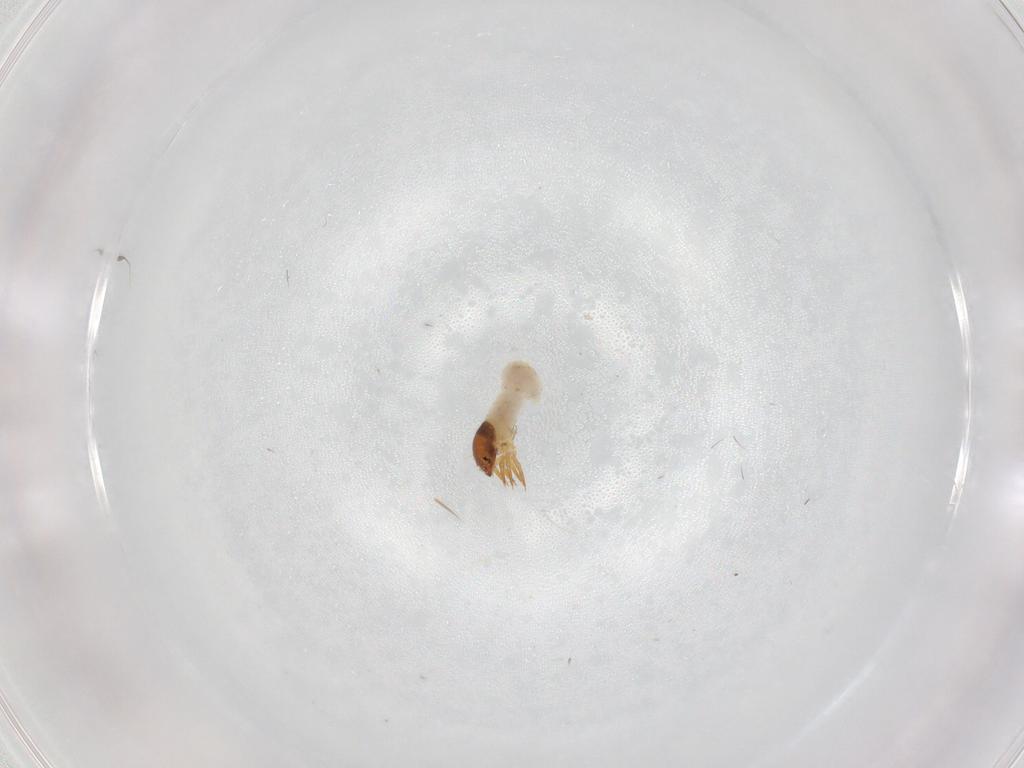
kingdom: Animalia
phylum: Arthropoda
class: Insecta
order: Coleoptera
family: Chrysomelidae
